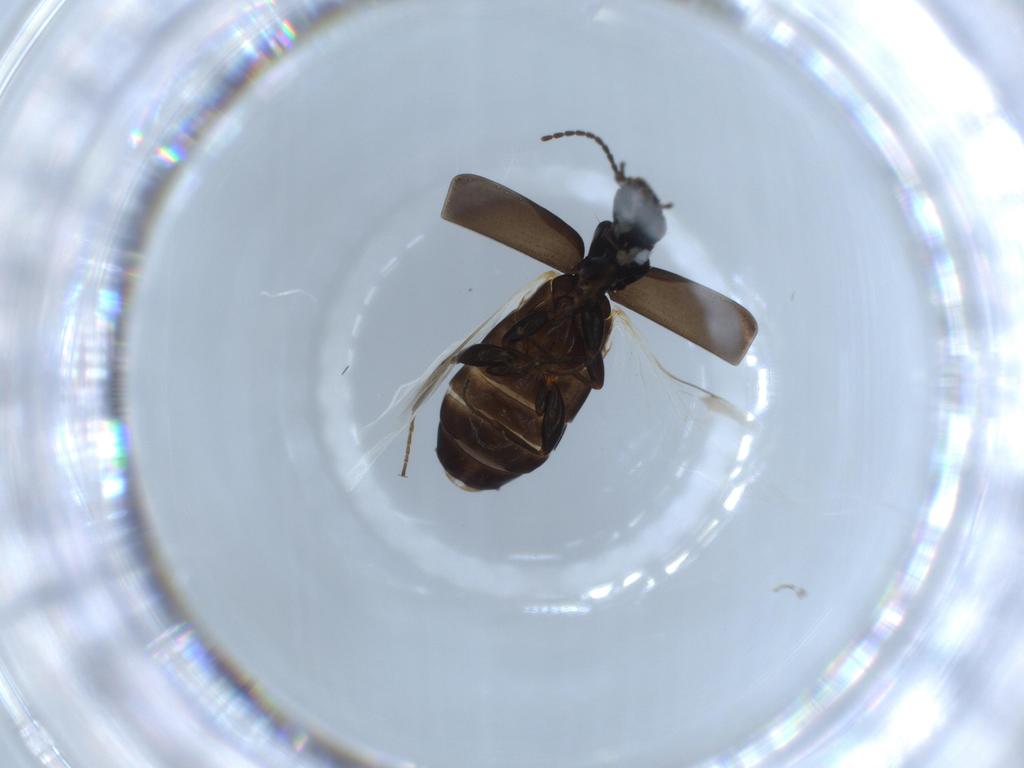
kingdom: Animalia
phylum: Arthropoda
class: Insecta
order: Coleoptera
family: Carabidae
